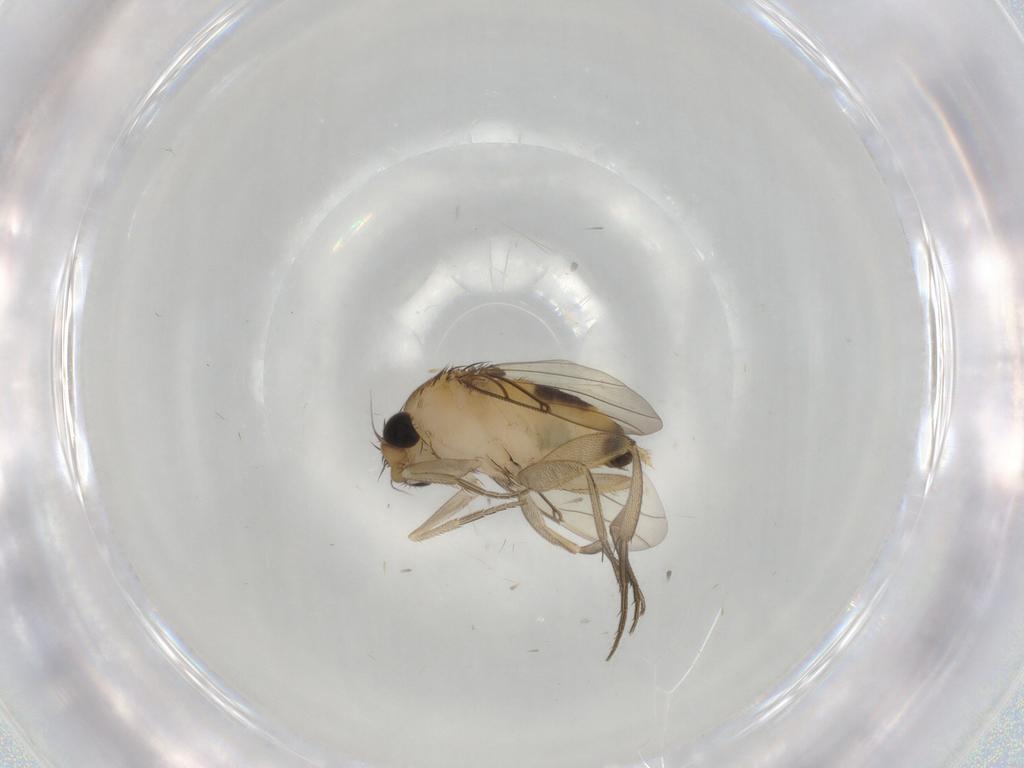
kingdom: Animalia
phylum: Arthropoda
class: Insecta
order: Diptera
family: Phoridae
